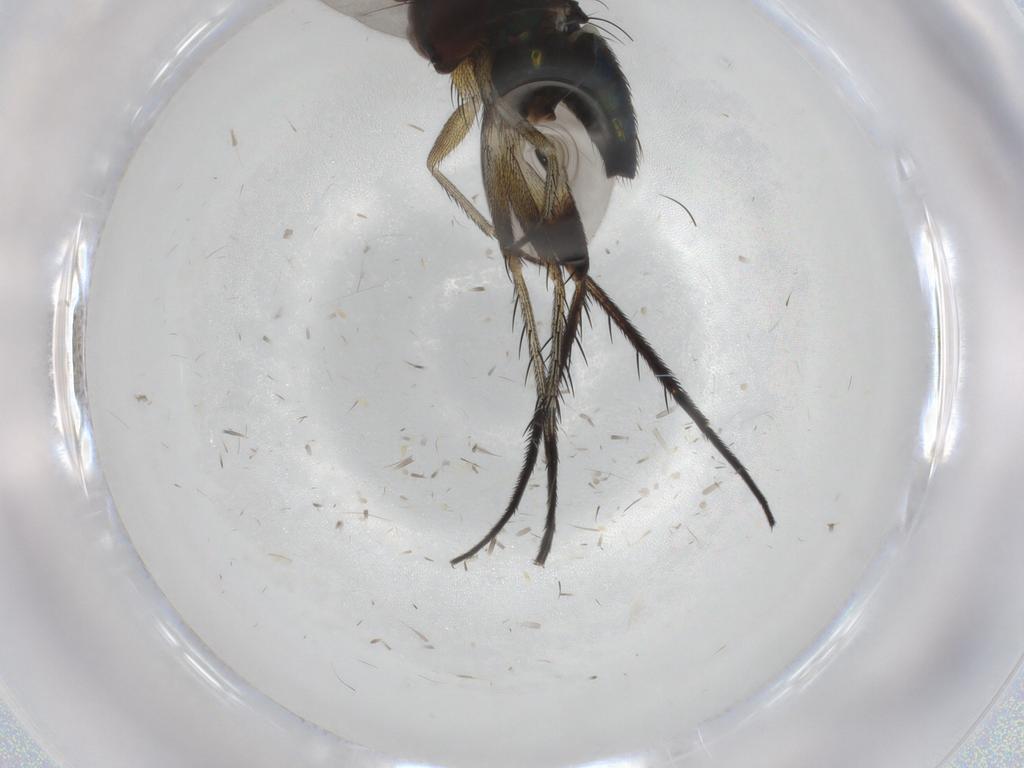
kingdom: Animalia
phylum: Arthropoda
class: Insecta
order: Diptera
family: Dolichopodidae
